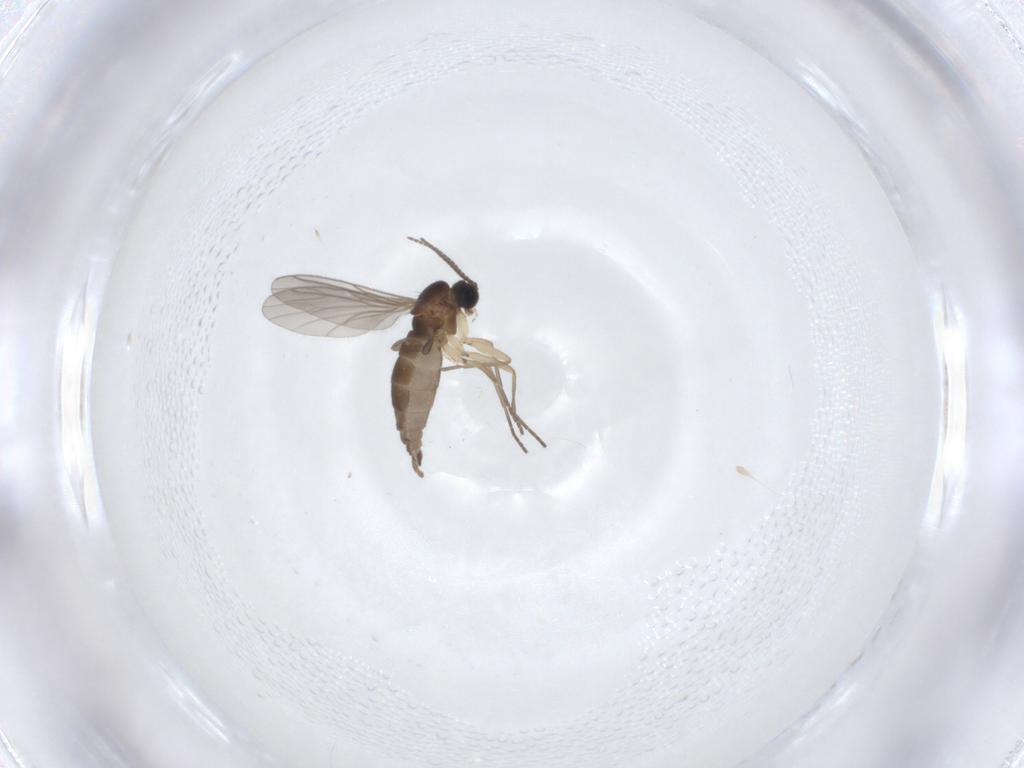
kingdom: Animalia
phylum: Arthropoda
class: Insecta
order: Diptera
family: Sciaridae
